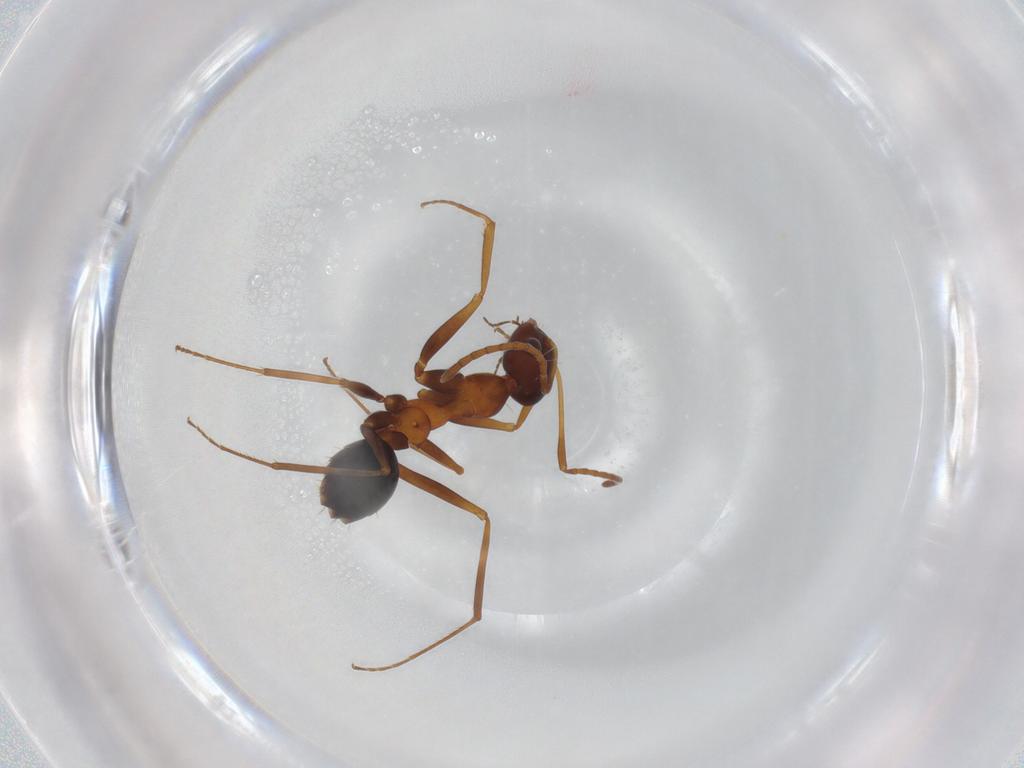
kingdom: Animalia
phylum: Arthropoda
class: Insecta
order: Hymenoptera
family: Formicidae
